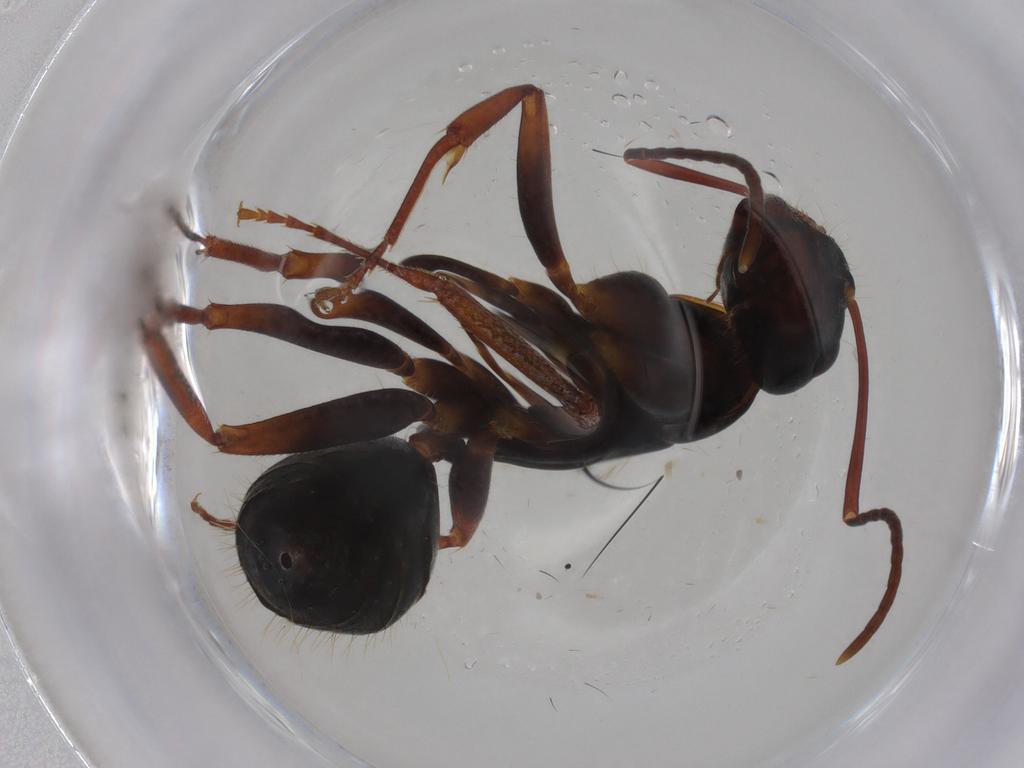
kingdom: Animalia
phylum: Arthropoda
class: Insecta
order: Hymenoptera
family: Formicidae
